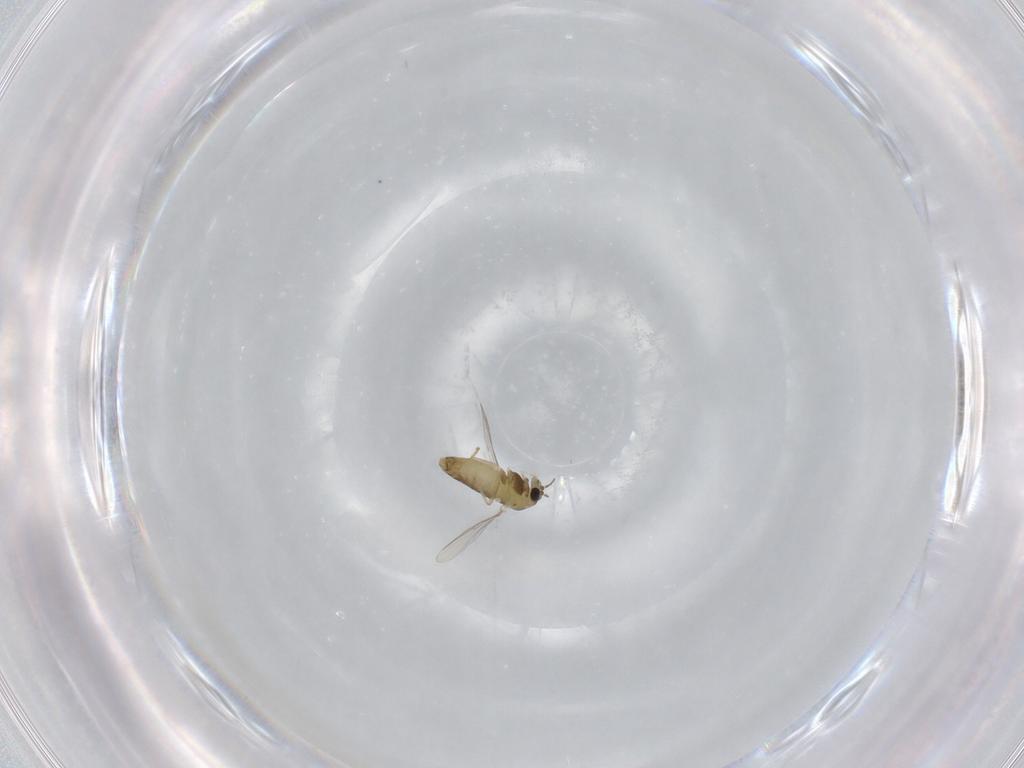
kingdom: Animalia
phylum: Arthropoda
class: Insecta
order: Diptera
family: Chironomidae
